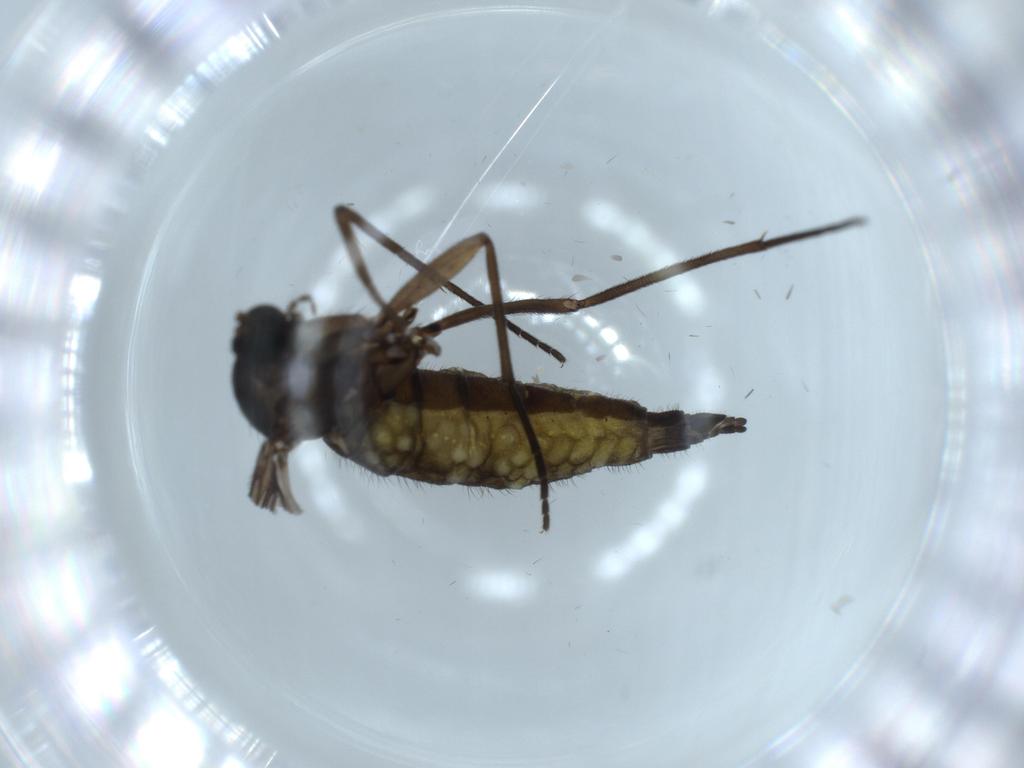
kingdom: Animalia
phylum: Arthropoda
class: Insecta
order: Diptera
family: Sciaridae
